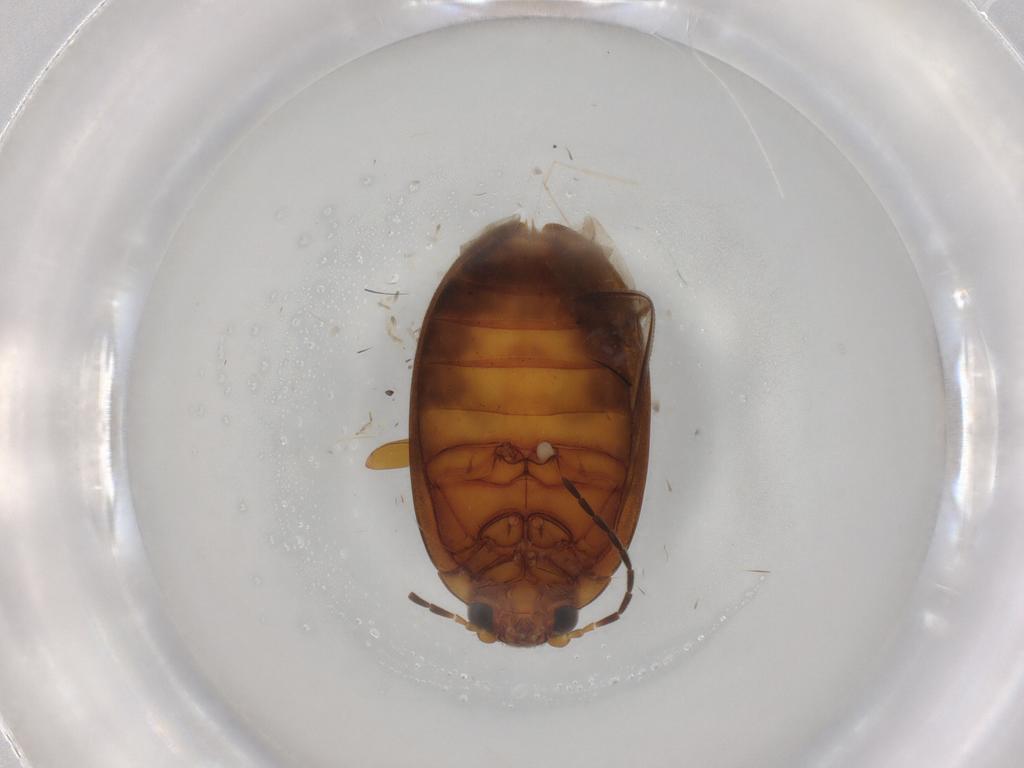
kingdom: Animalia
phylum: Arthropoda
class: Insecta
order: Coleoptera
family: Scirtidae
